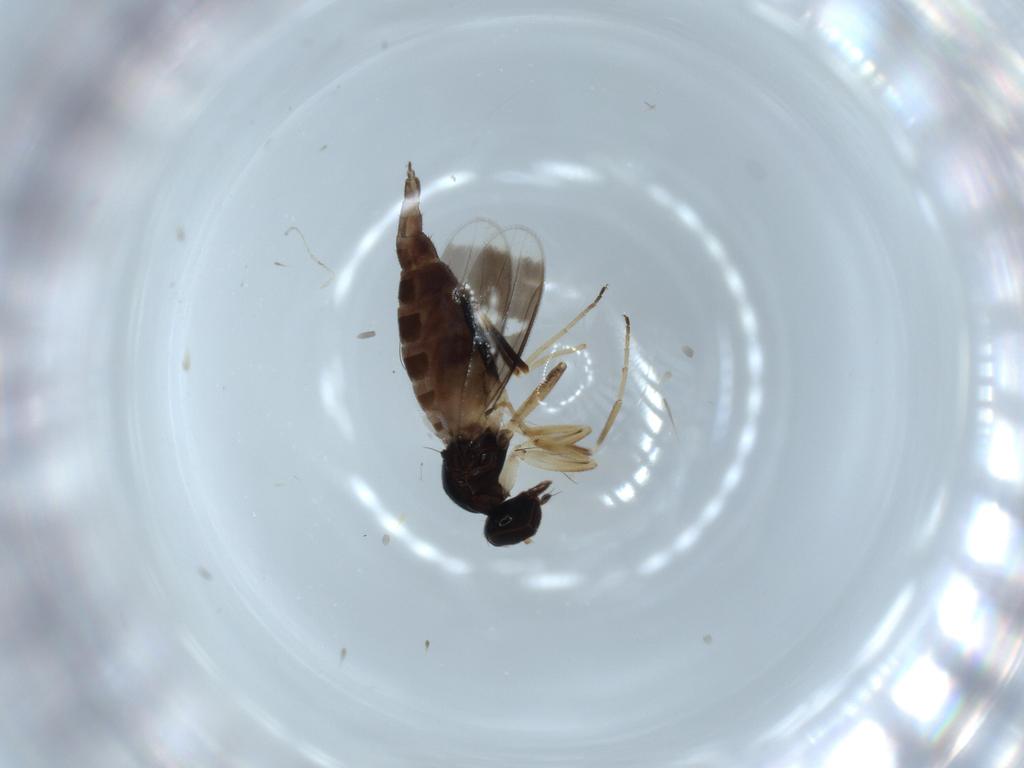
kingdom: Animalia
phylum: Arthropoda
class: Insecta
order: Diptera
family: Hybotidae
